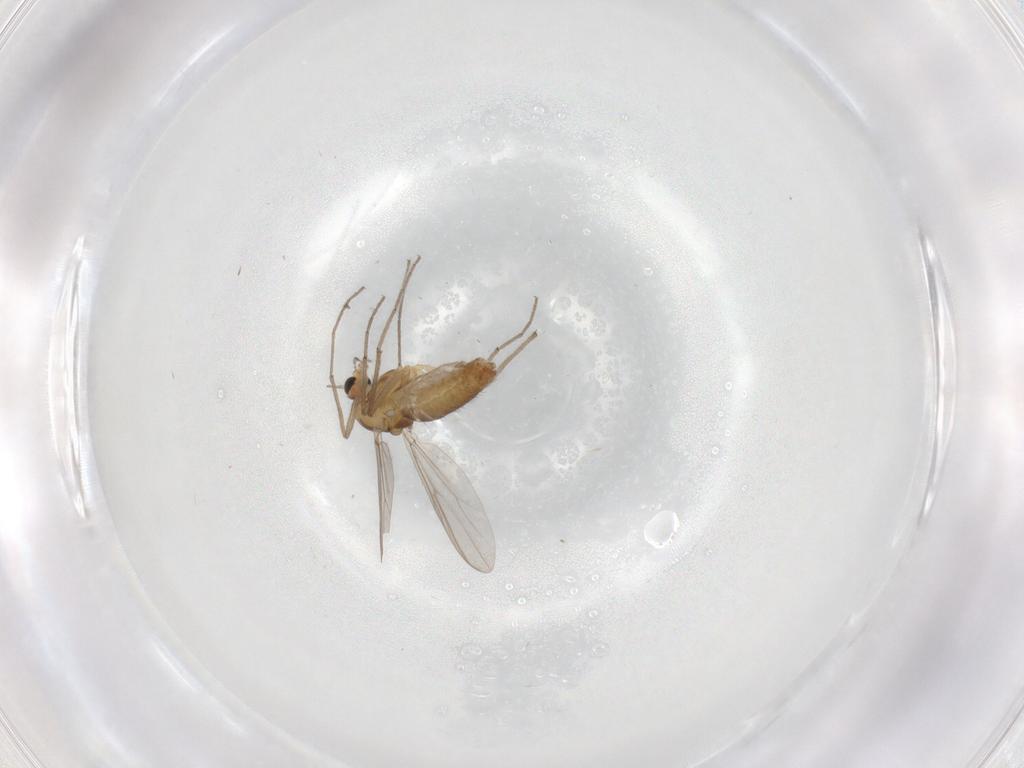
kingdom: Animalia
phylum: Arthropoda
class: Insecta
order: Diptera
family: Chironomidae
